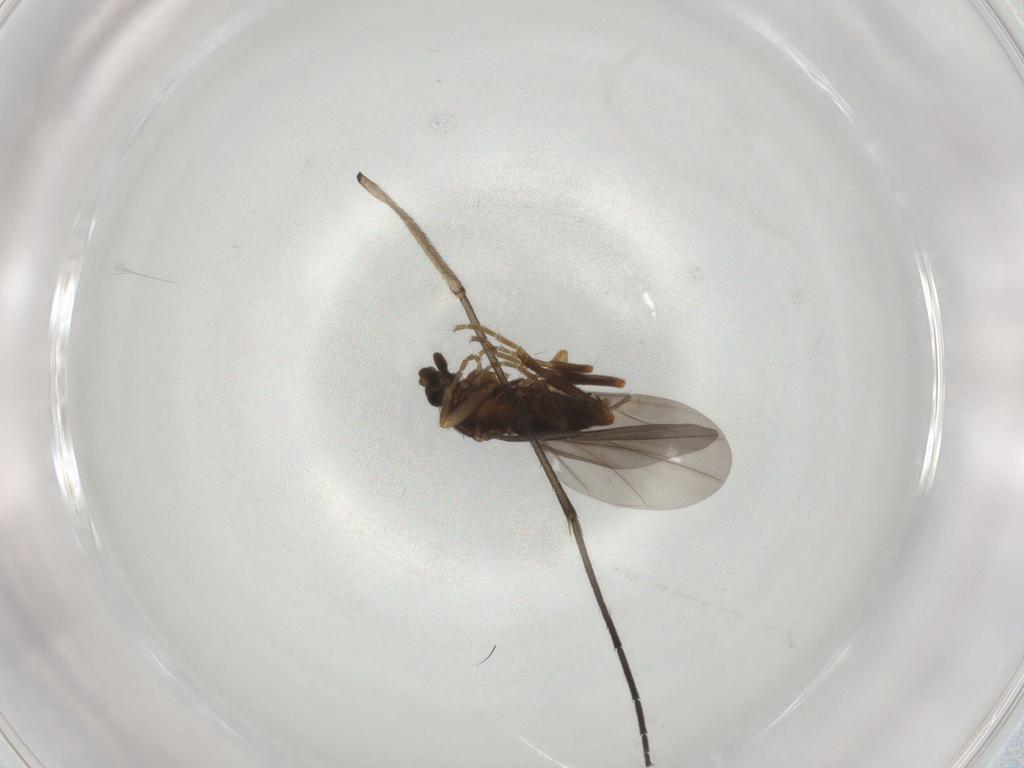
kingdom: Animalia
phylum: Arthropoda
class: Insecta
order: Diptera
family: Phoridae
